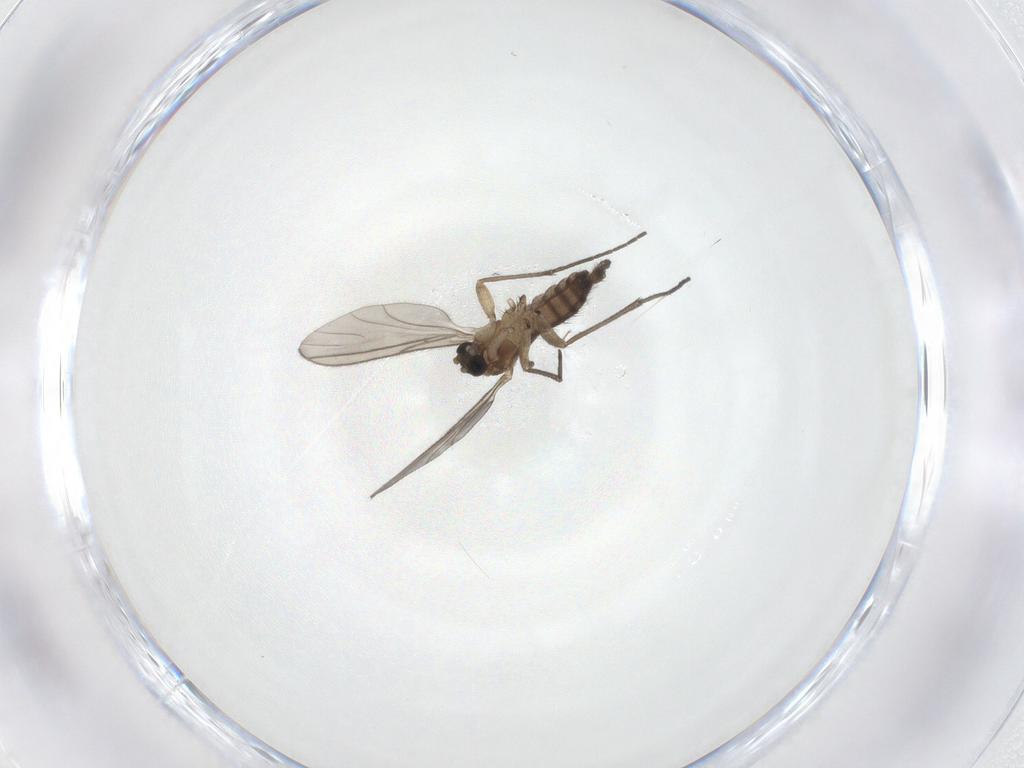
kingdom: Animalia
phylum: Arthropoda
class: Insecta
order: Diptera
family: Sciaridae
